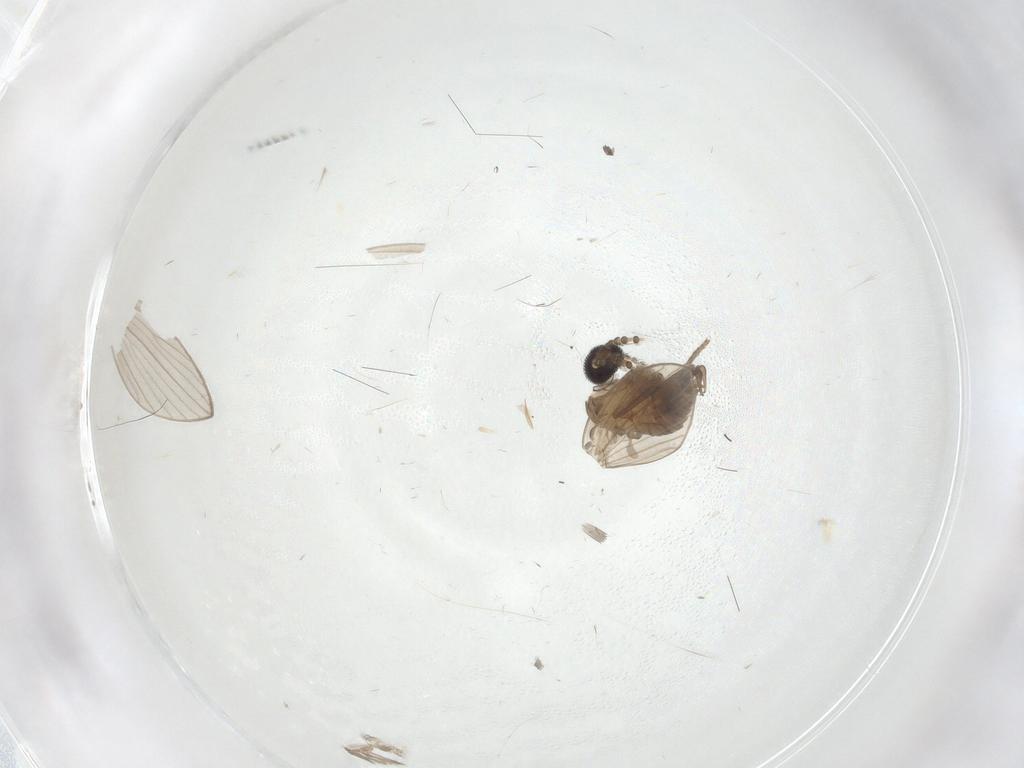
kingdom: Animalia
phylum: Arthropoda
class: Insecta
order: Diptera
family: Psychodidae
